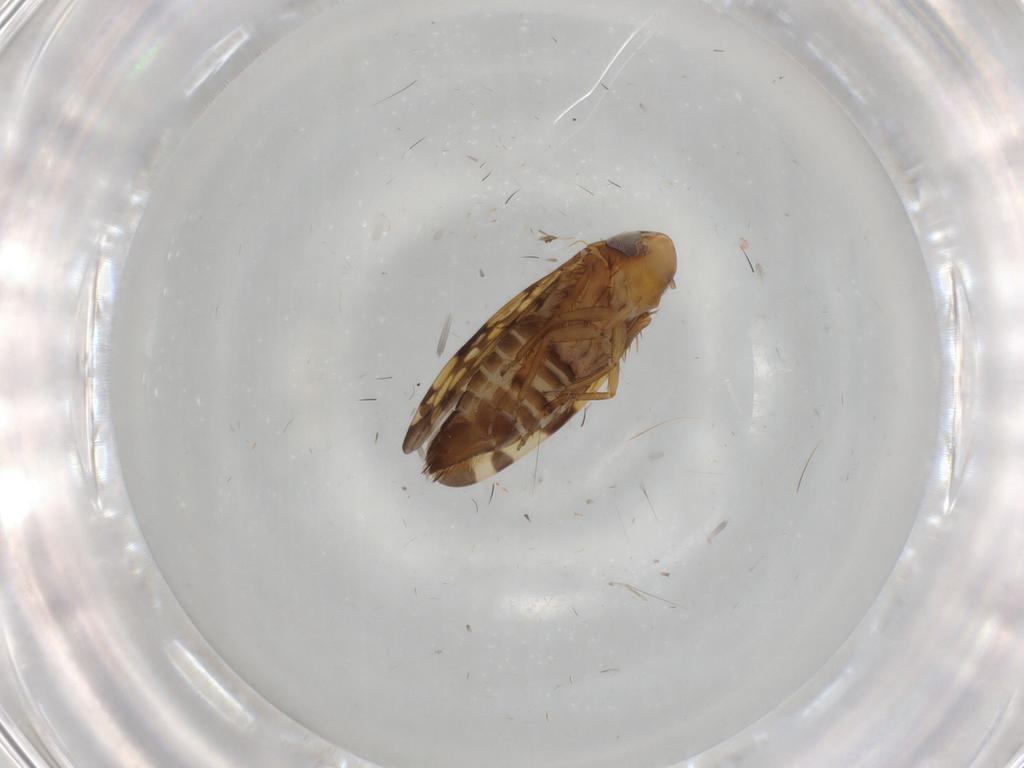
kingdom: Animalia
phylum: Arthropoda
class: Insecta
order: Hemiptera
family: Cicadellidae
